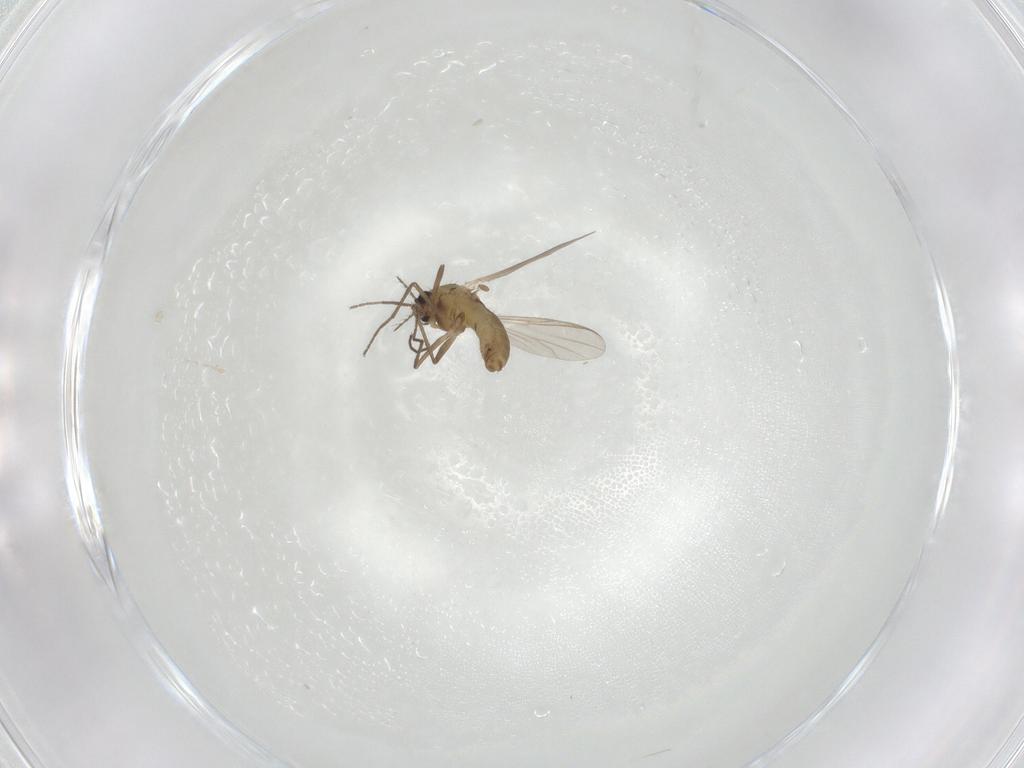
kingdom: Animalia
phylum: Arthropoda
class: Insecta
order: Diptera
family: Chironomidae
